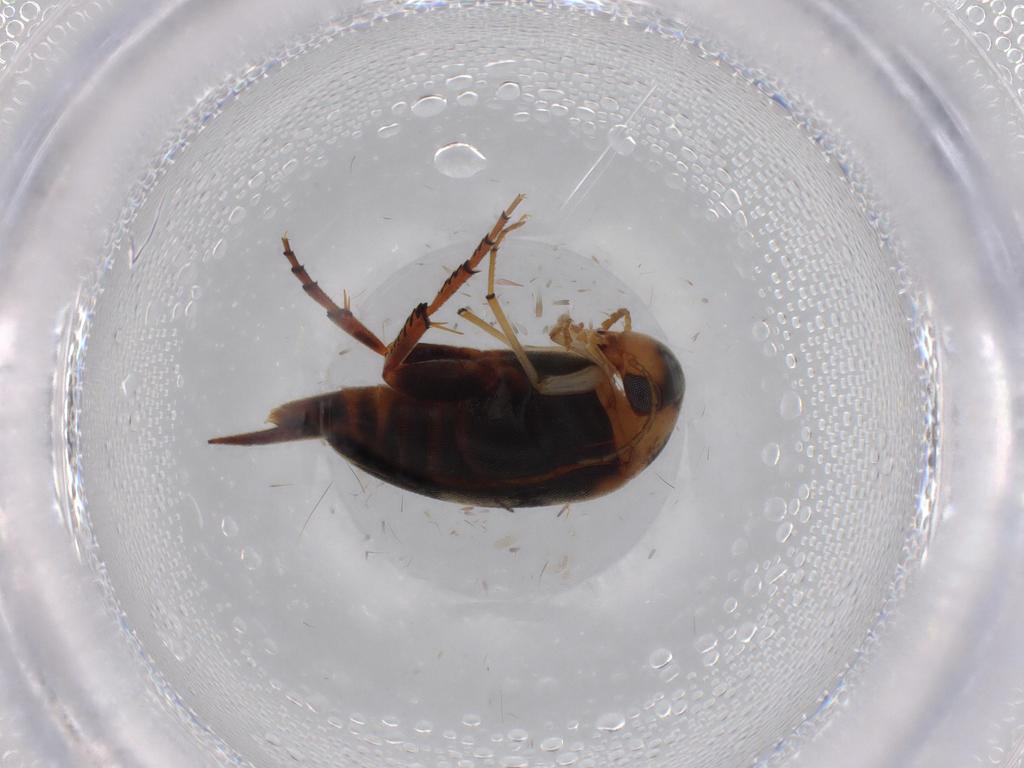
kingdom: Animalia
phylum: Arthropoda
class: Insecta
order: Coleoptera
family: Mordellidae
